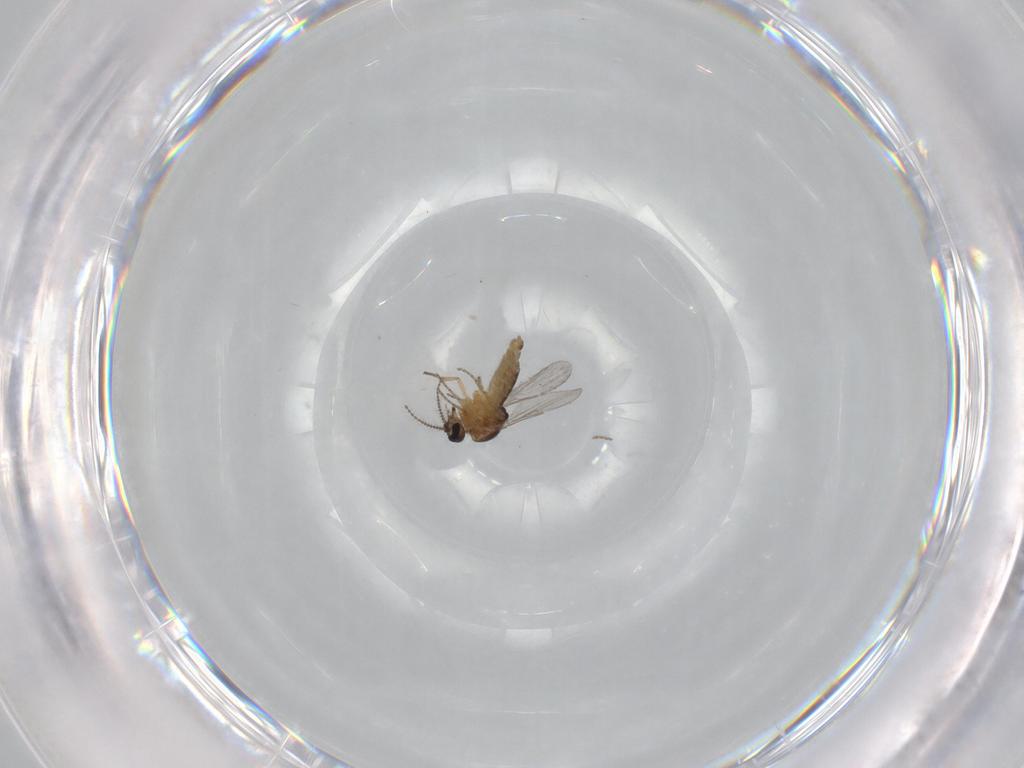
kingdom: Animalia
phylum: Arthropoda
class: Insecta
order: Diptera
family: Ceratopogonidae
